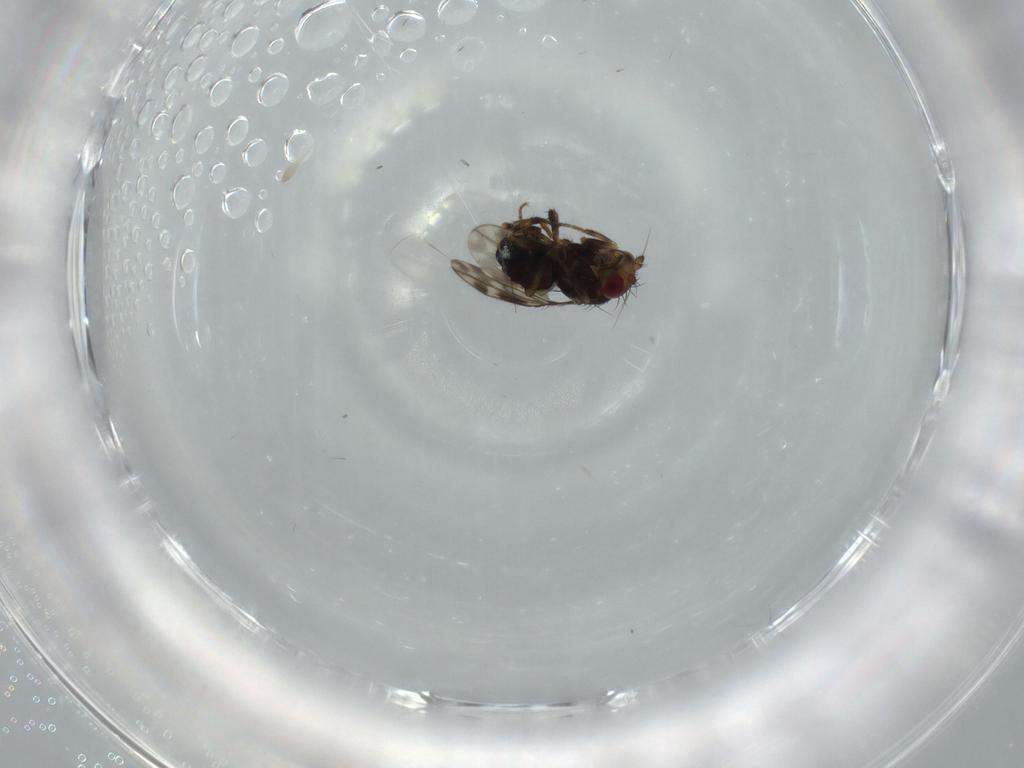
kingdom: Animalia
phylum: Arthropoda
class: Insecta
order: Diptera
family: Sphaeroceridae
